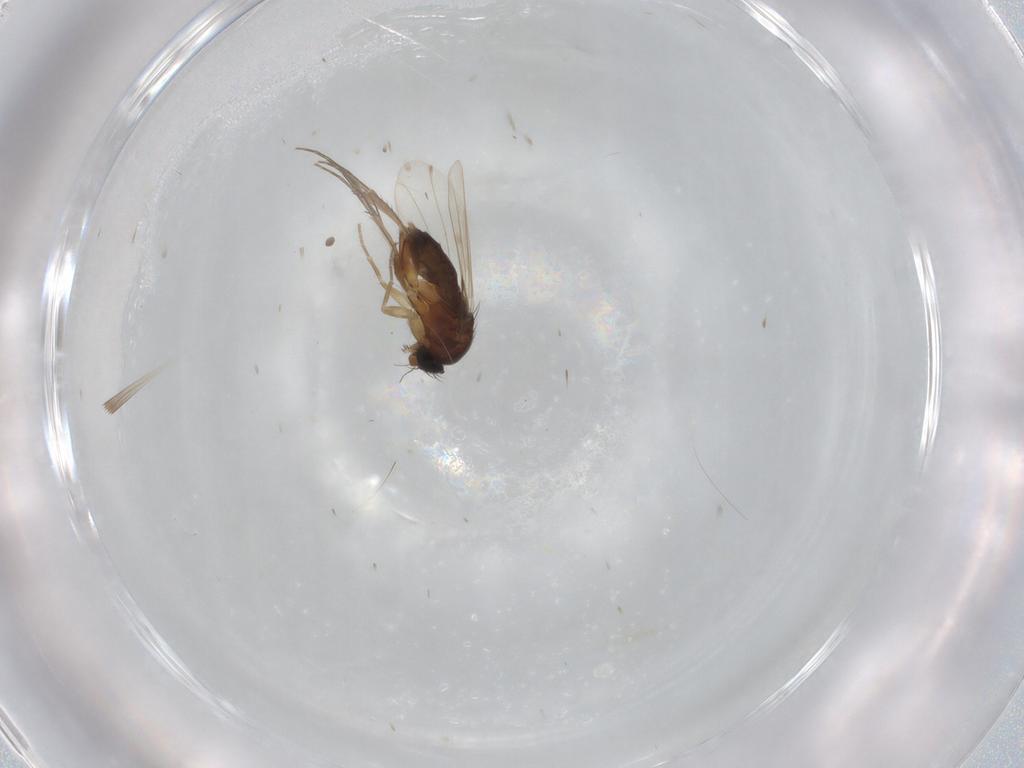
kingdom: Animalia
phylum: Arthropoda
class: Insecta
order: Diptera
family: Phoridae
